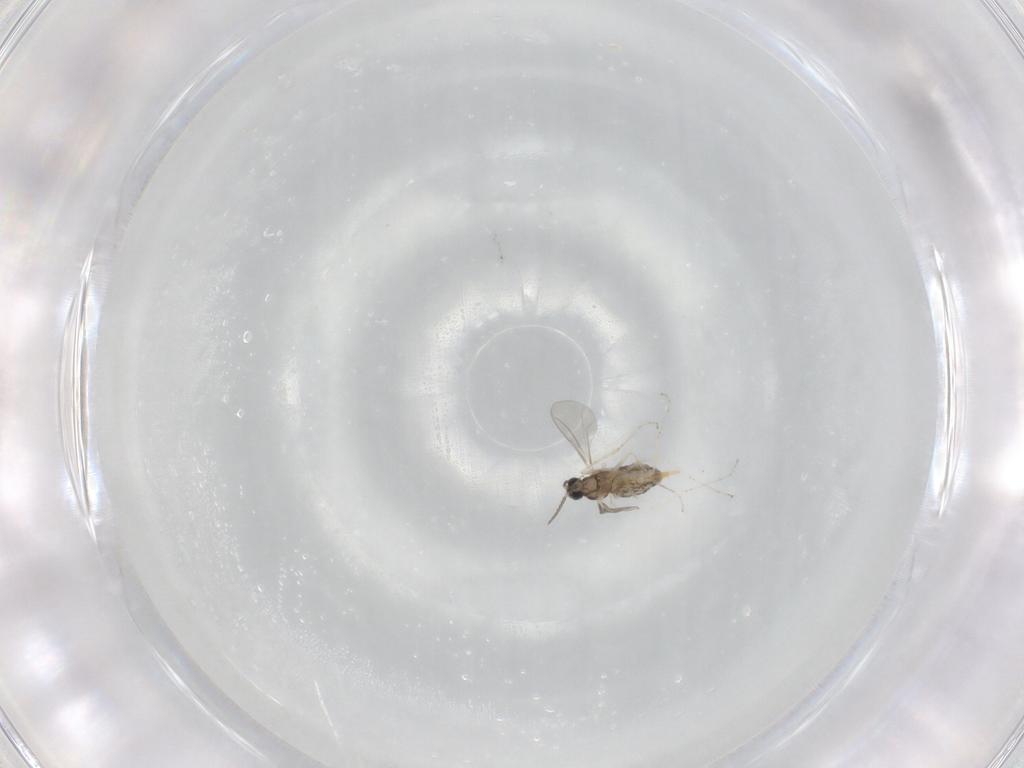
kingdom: Animalia
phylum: Arthropoda
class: Insecta
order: Diptera
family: Cecidomyiidae
